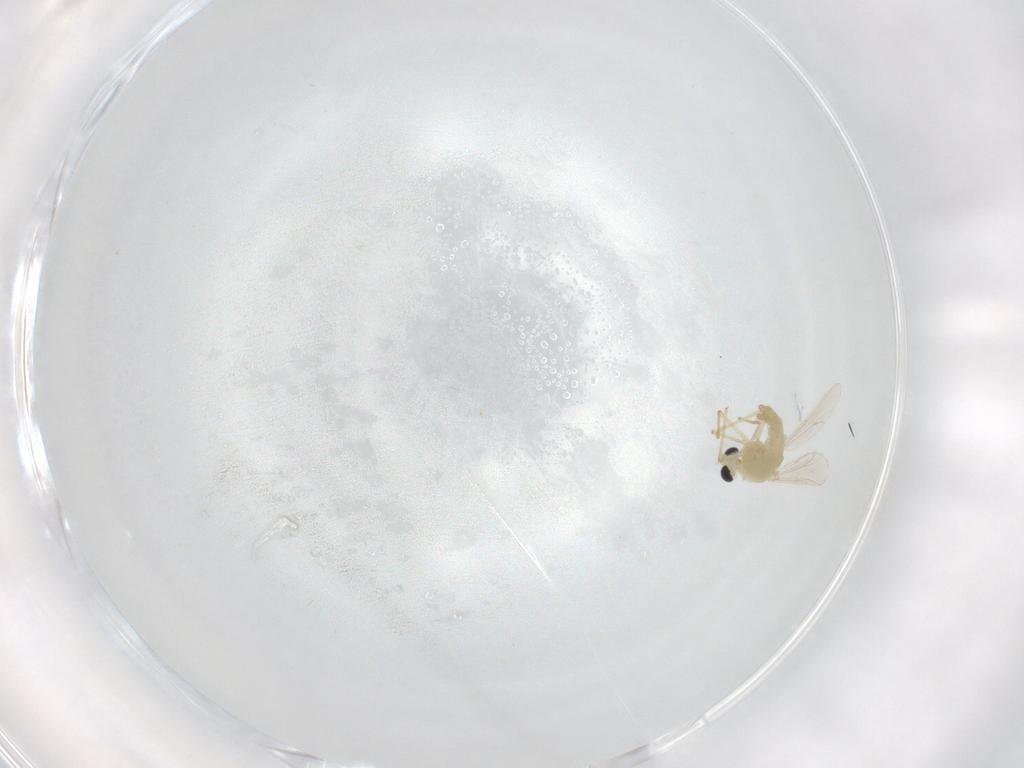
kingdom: Animalia
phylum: Arthropoda
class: Insecta
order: Diptera
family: Chironomidae
